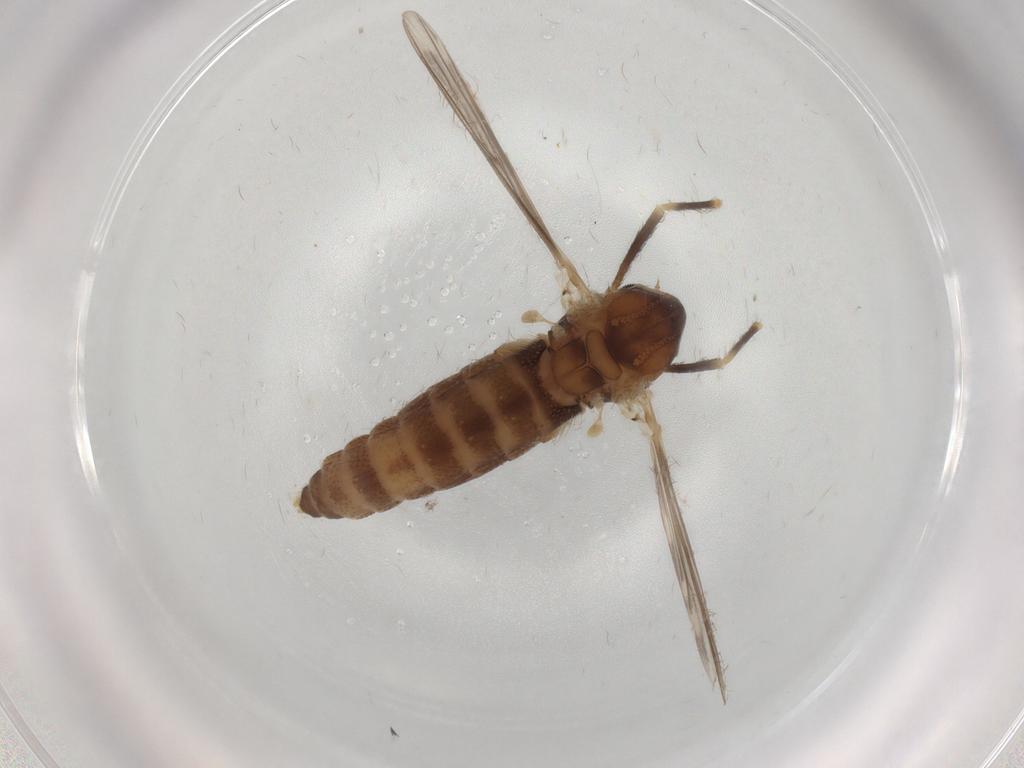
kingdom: Animalia
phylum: Arthropoda
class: Insecta
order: Diptera
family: Chironomidae
